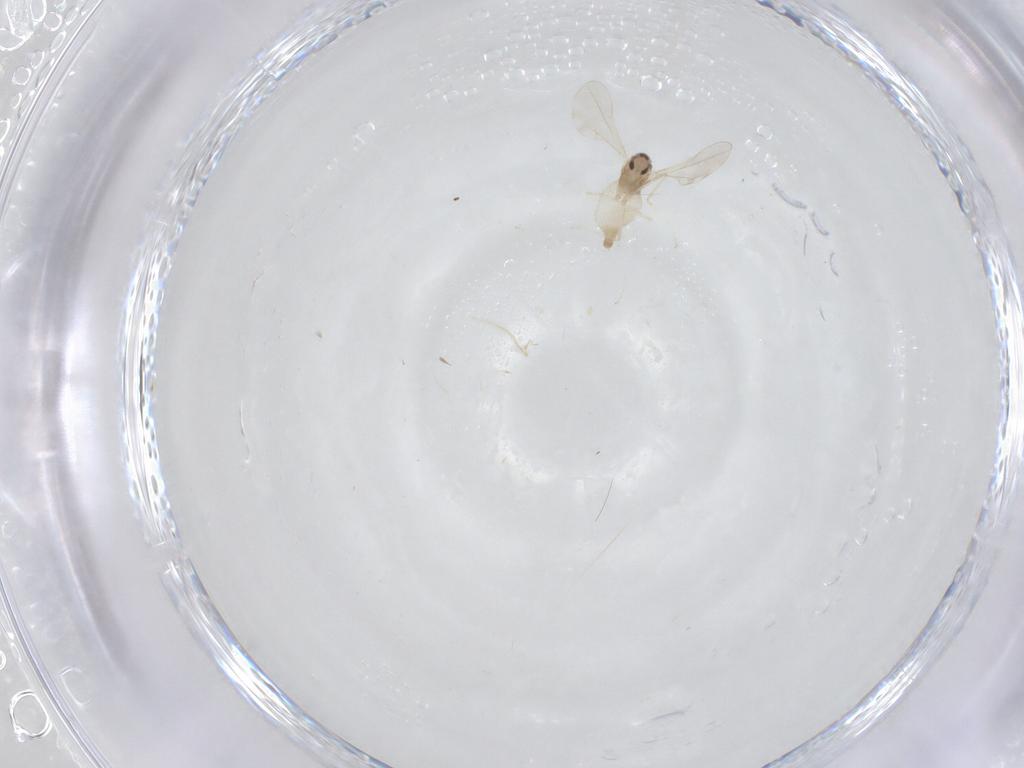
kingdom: Animalia
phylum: Arthropoda
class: Insecta
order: Diptera
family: Cecidomyiidae
